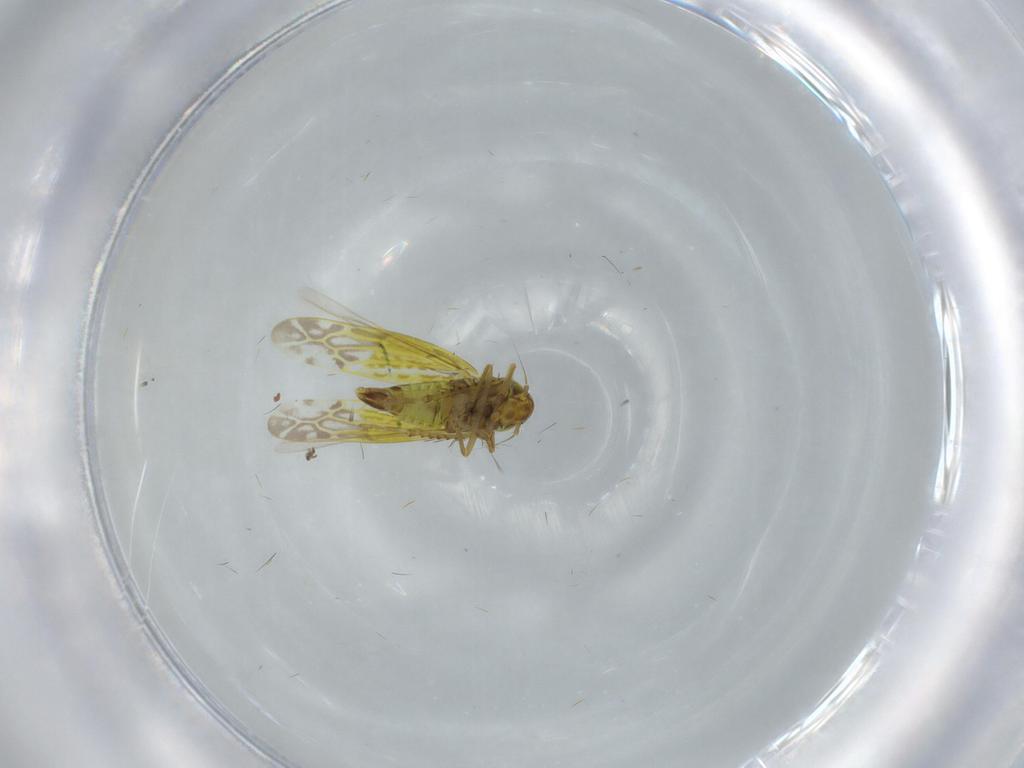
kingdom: Animalia
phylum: Arthropoda
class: Insecta
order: Hemiptera
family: Cicadellidae
